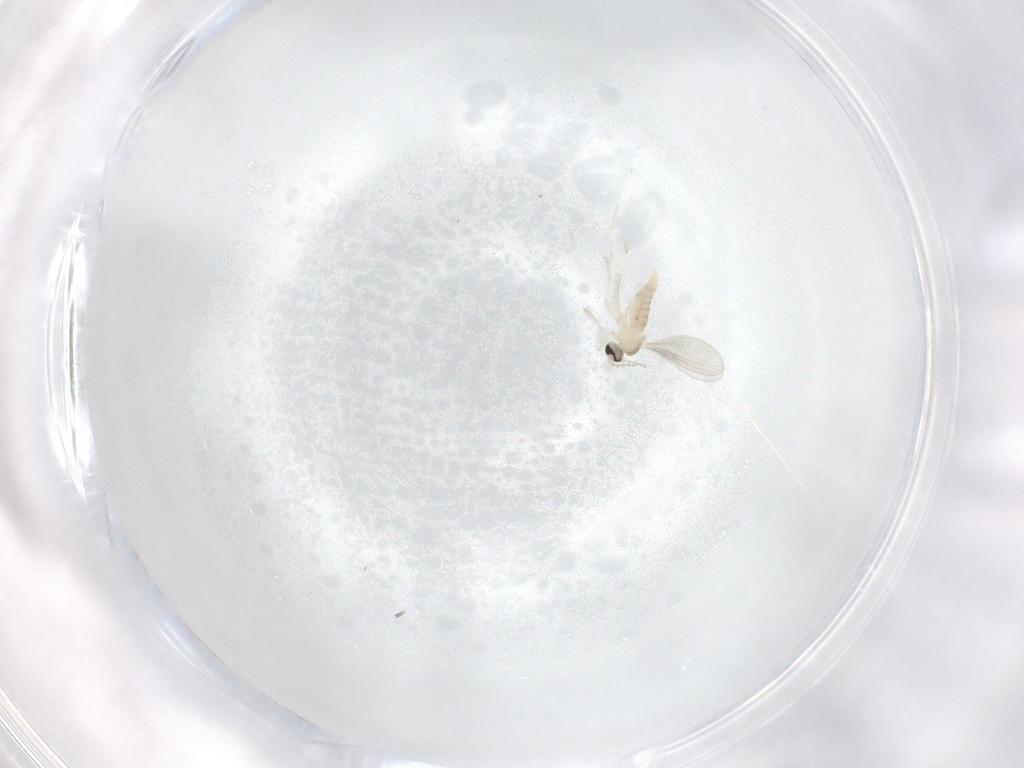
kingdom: Animalia
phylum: Arthropoda
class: Insecta
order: Diptera
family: Cecidomyiidae
